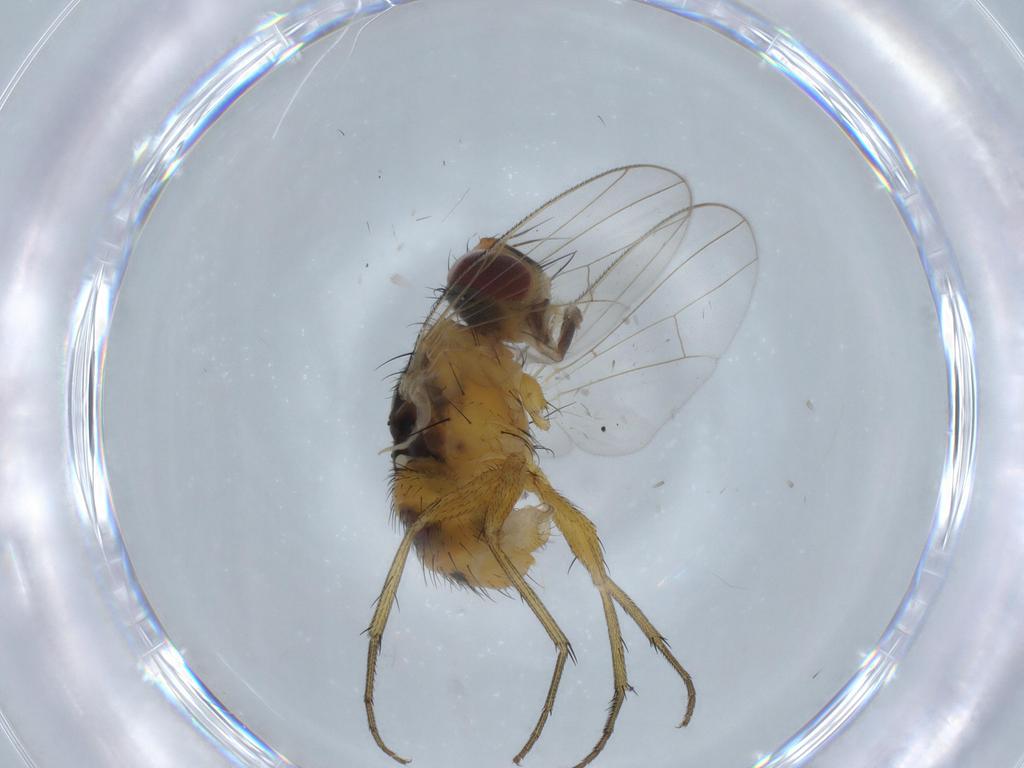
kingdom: Animalia
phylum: Arthropoda
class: Insecta
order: Diptera
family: Muscidae
